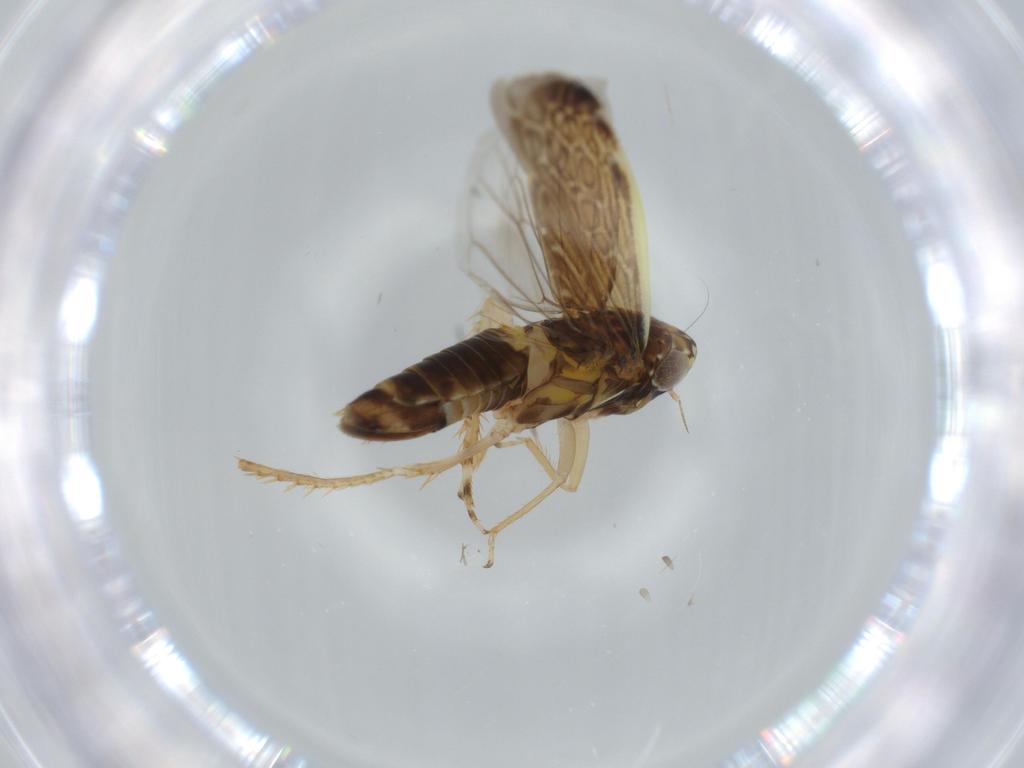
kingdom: Animalia
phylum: Arthropoda
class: Insecta
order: Hemiptera
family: Cicadellidae
